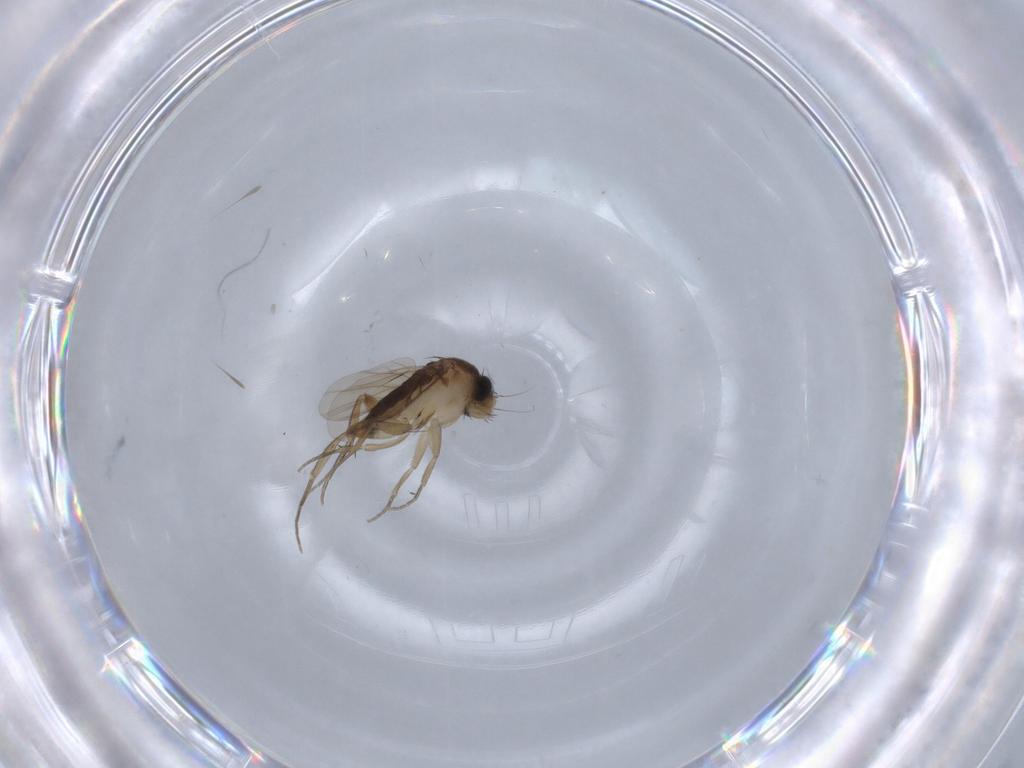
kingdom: Animalia
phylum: Arthropoda
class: Insecta
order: Diptera
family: Phoridae
